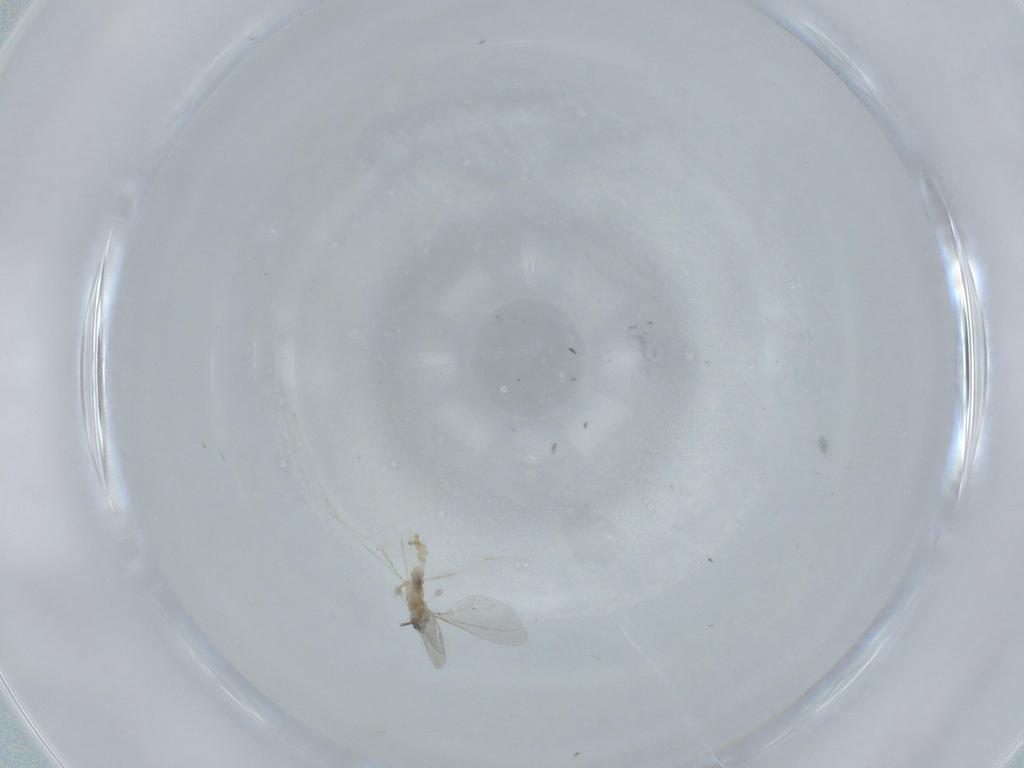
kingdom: Animalia
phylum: Arthropoda
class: Insecta
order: Diptera
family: Cecidomyiidae
